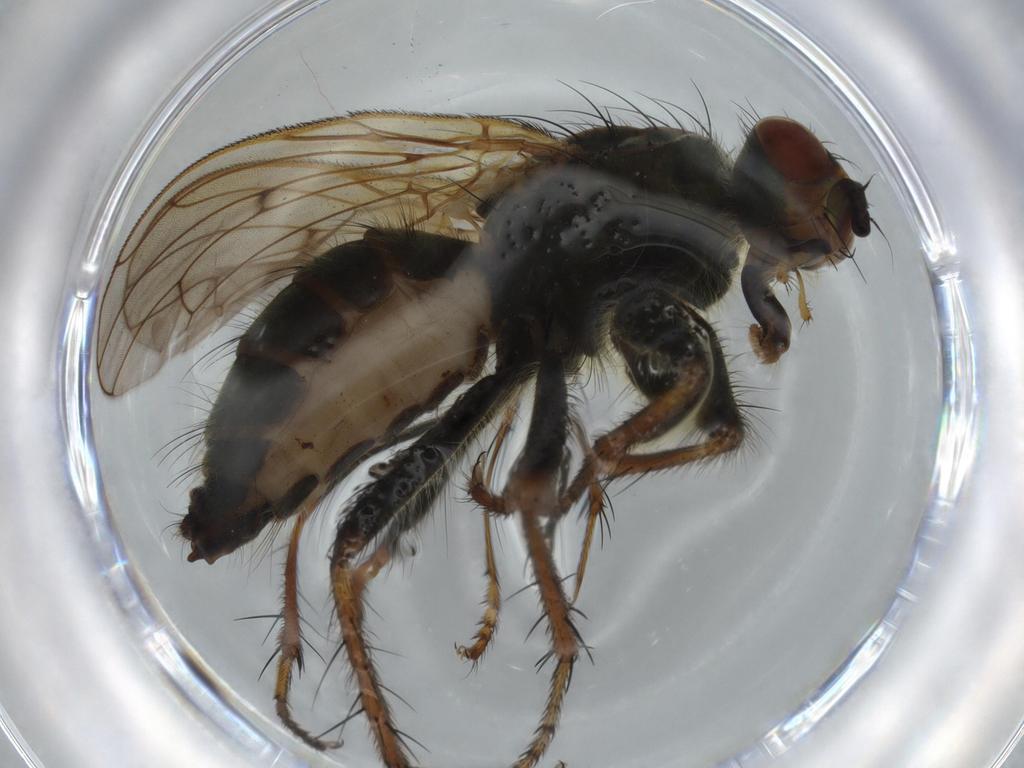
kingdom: Animalia
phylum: Arthropoda
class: Insecta
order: Diptera
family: Scathophagidae
